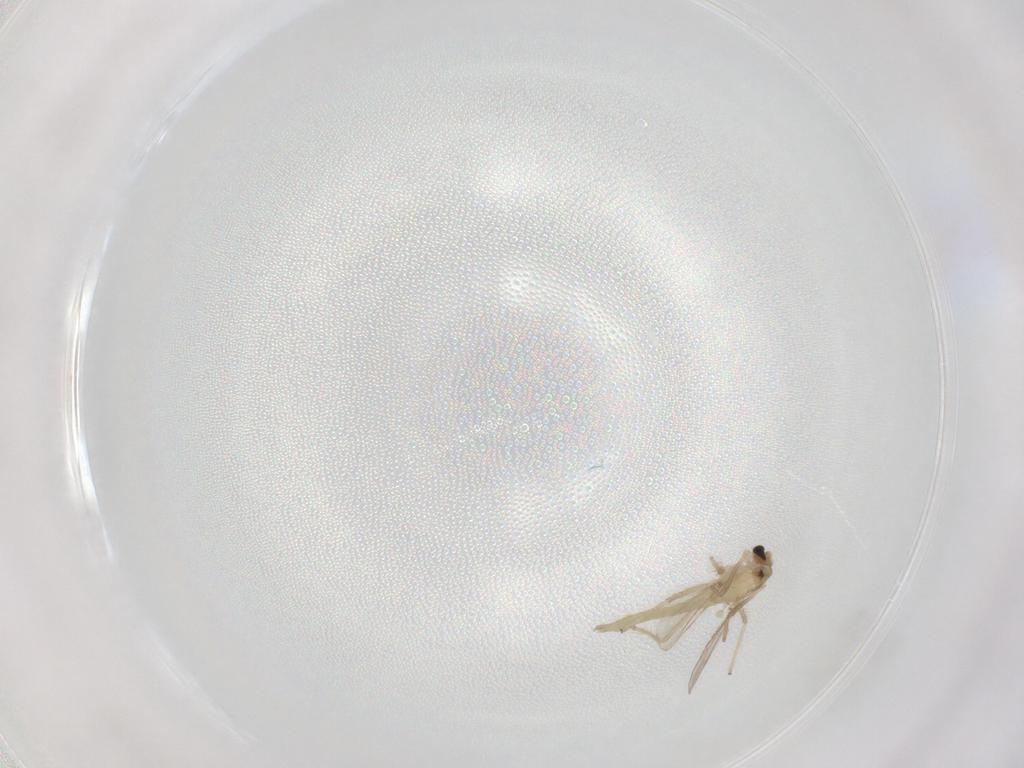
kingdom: Animalia
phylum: Arthropoda
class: Insecta
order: Diptera
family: Chironomidae
